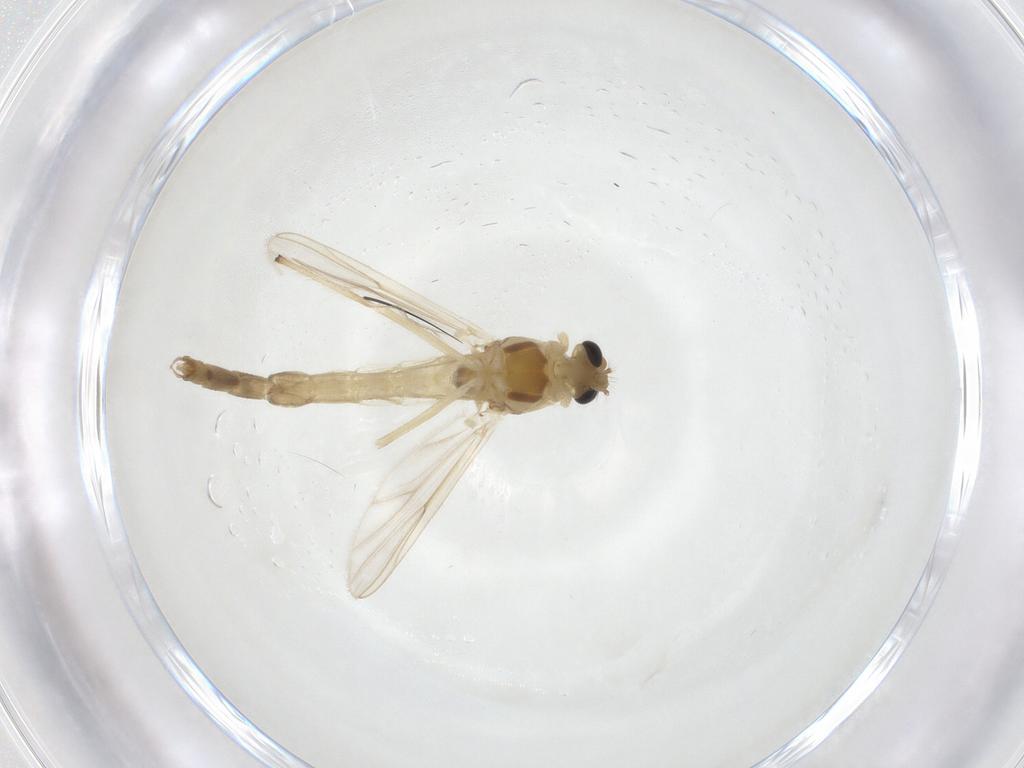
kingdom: Animalia
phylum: Arthropoda
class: Insecta
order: Diptera
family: Chironomidae
